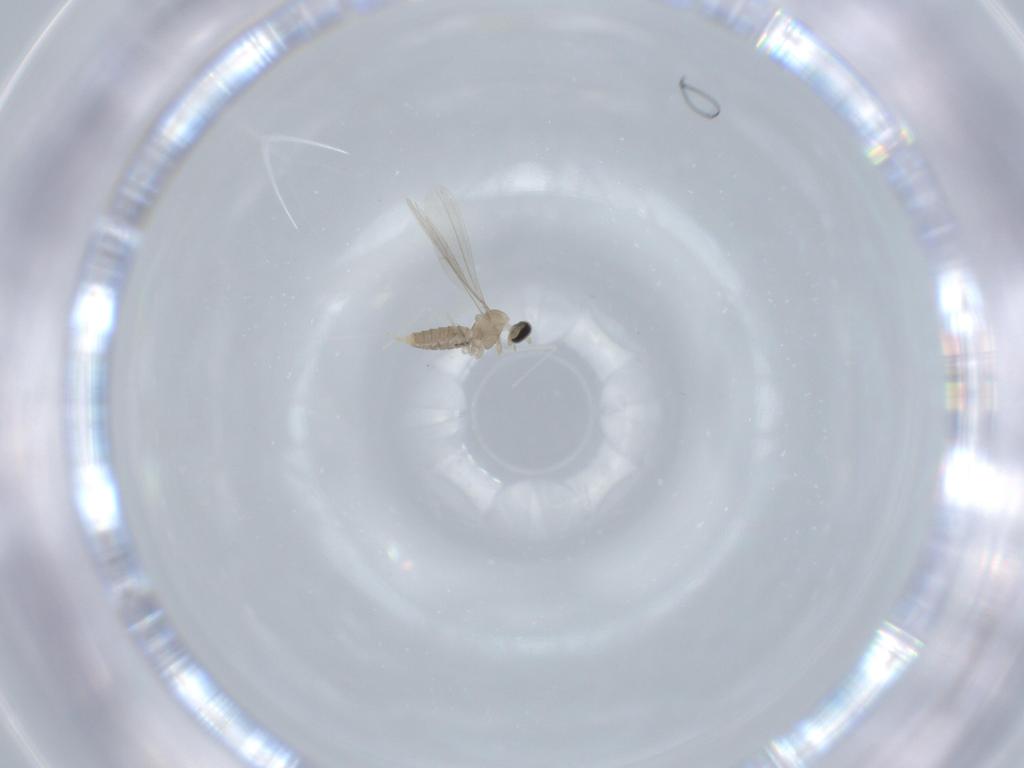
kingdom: Animalia
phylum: Arthropoda
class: Insecta
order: Diptera
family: Cecidomyiidae
